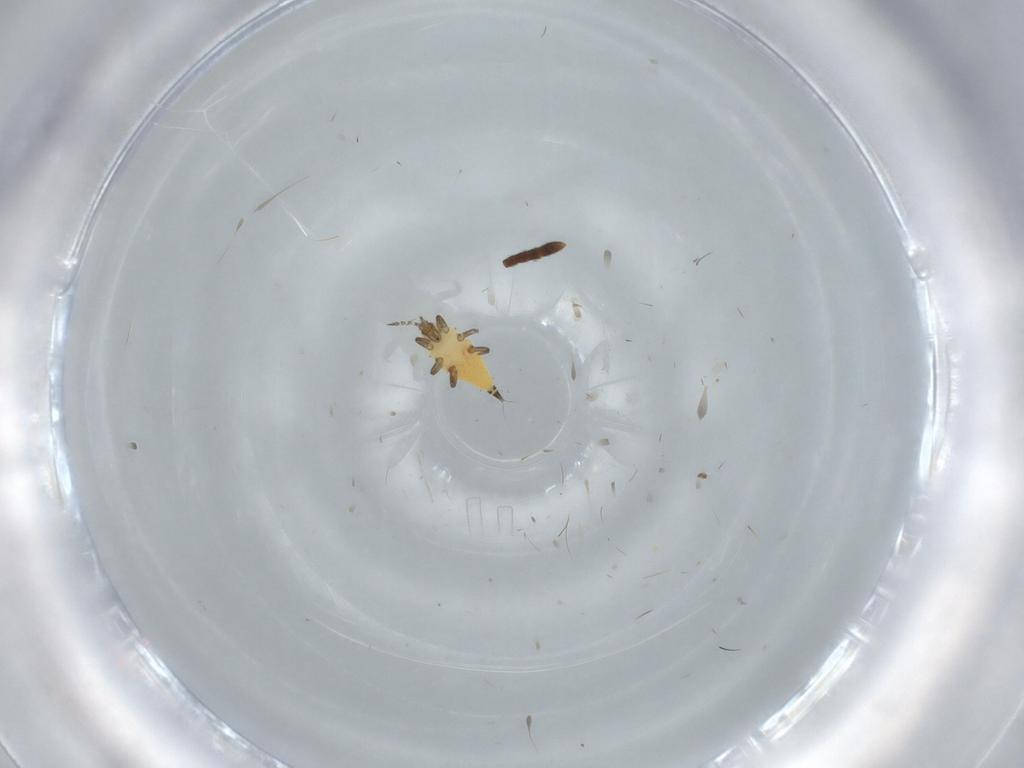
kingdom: Animalia
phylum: Arthropoda
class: Insecta
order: Thysanoptera
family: Phlaeothripidae
